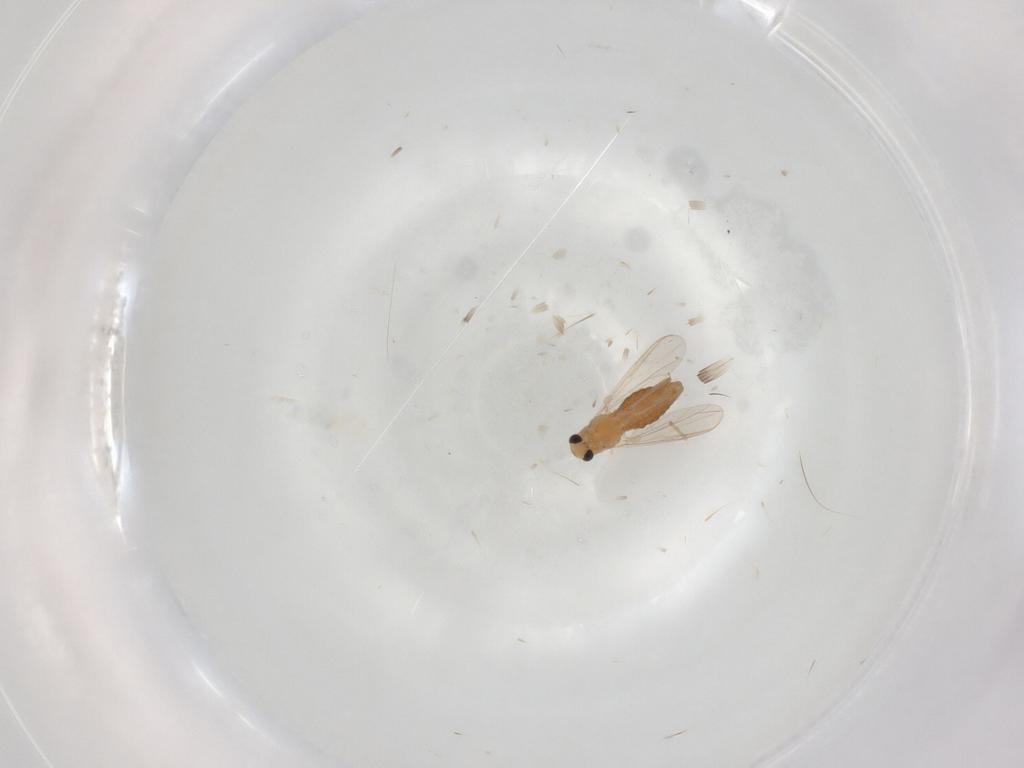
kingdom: Animalia
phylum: Arthropoda
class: Insecta
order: Diptera
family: Chironomidae
